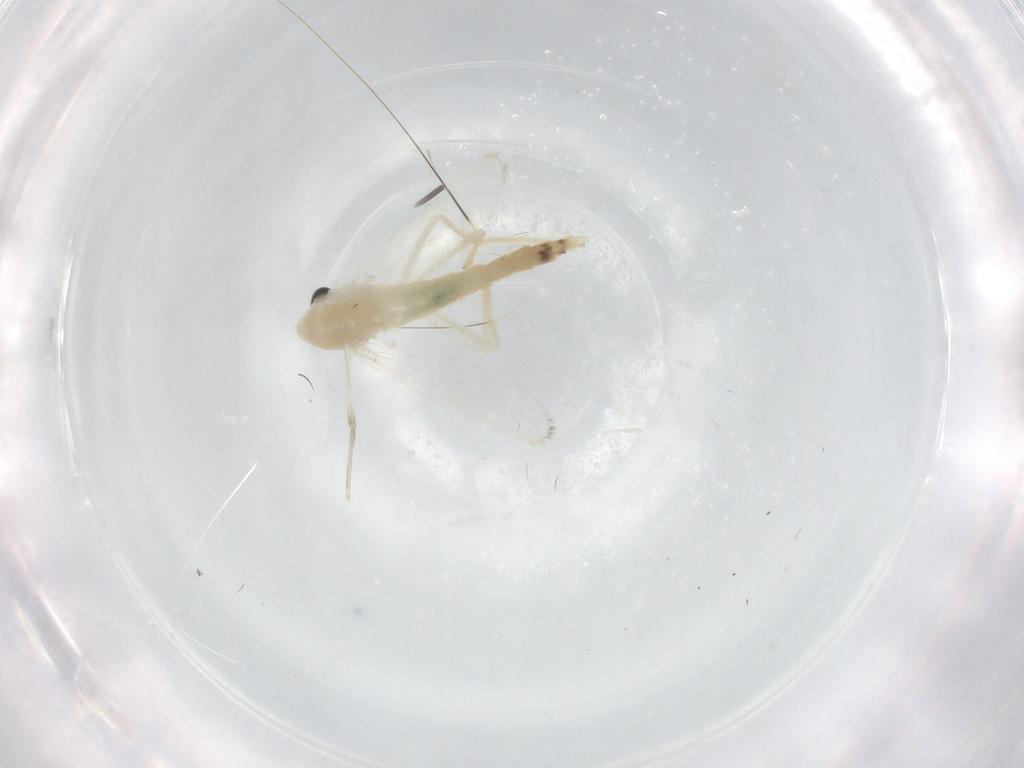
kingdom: Animalia
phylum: Arthropoda
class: Insecta
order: Diptera
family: Chironomidae
